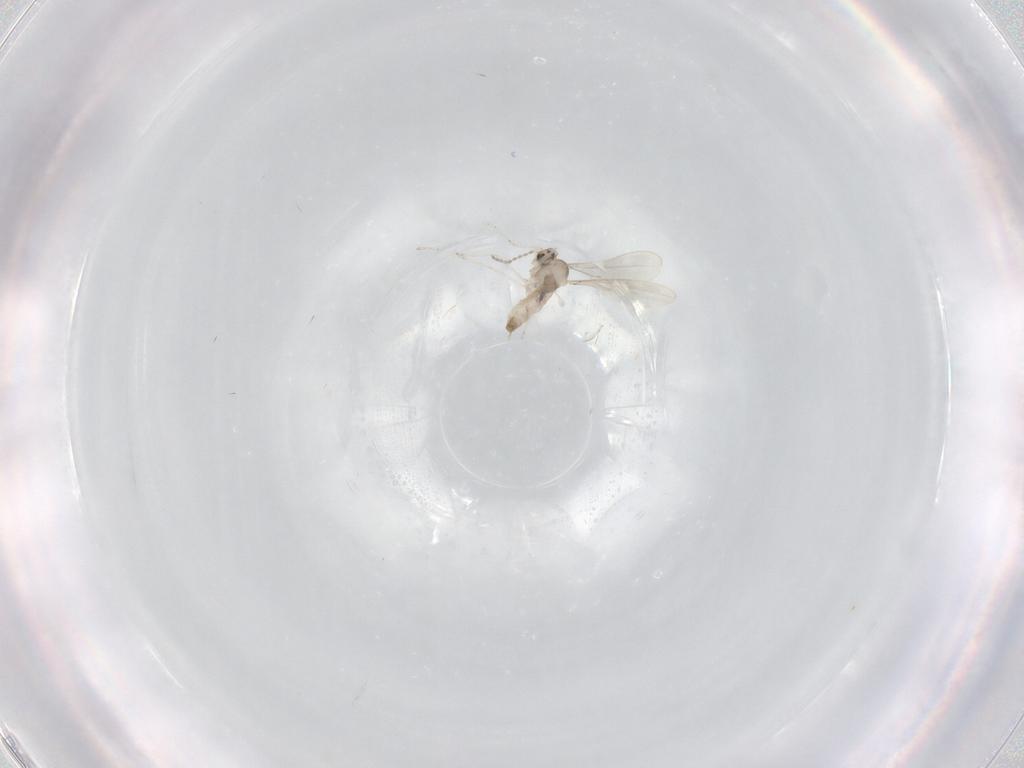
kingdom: Animalia
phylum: Arthropoda
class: Insecta
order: Diptera
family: Cecidomyiidae
